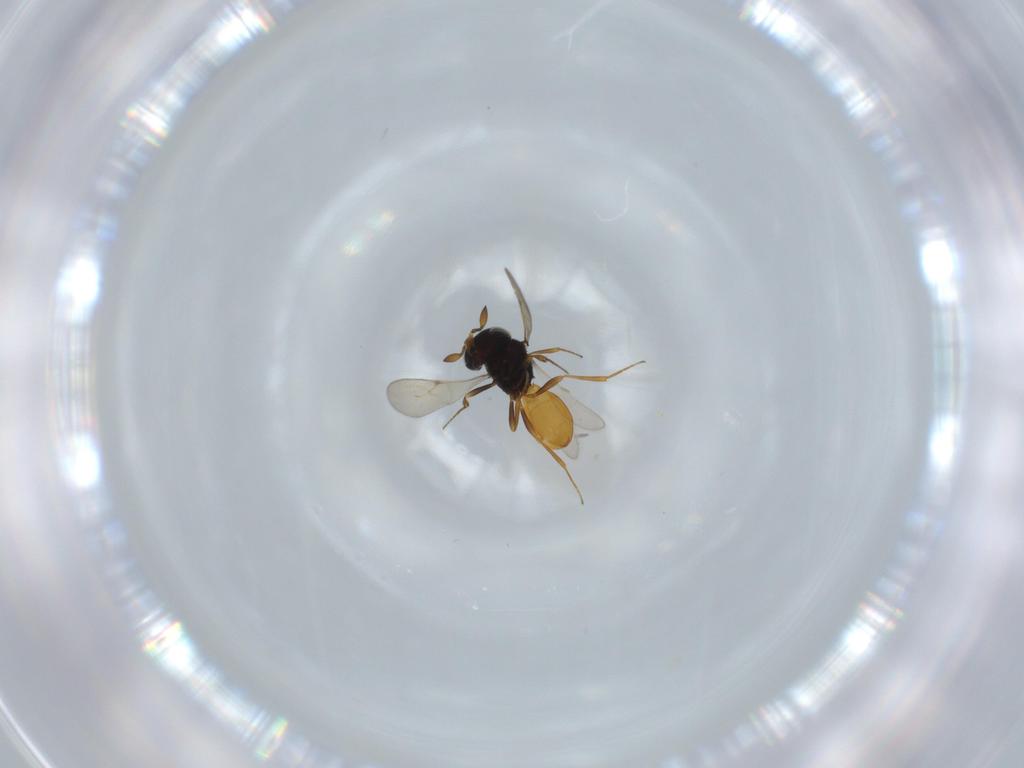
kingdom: Animalia
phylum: Arthropoda
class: Insecta
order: Hymenoptera
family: Scelionidae
